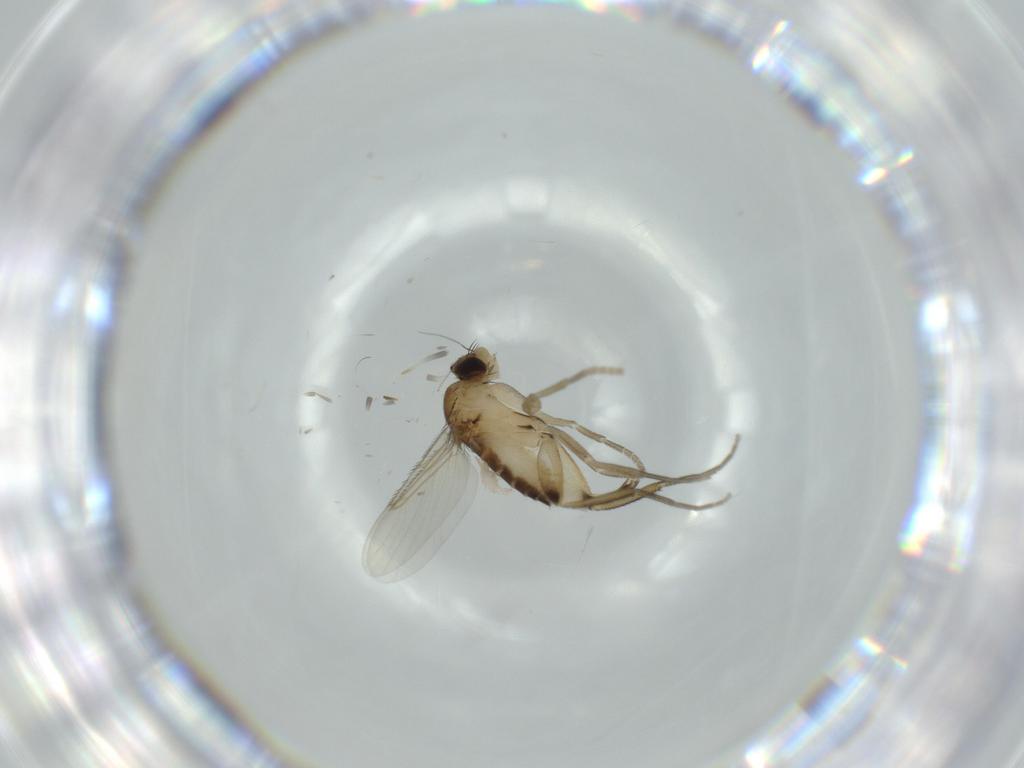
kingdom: Animalia
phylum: Arthropoda
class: Insecta
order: Diptera
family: Phoridae
